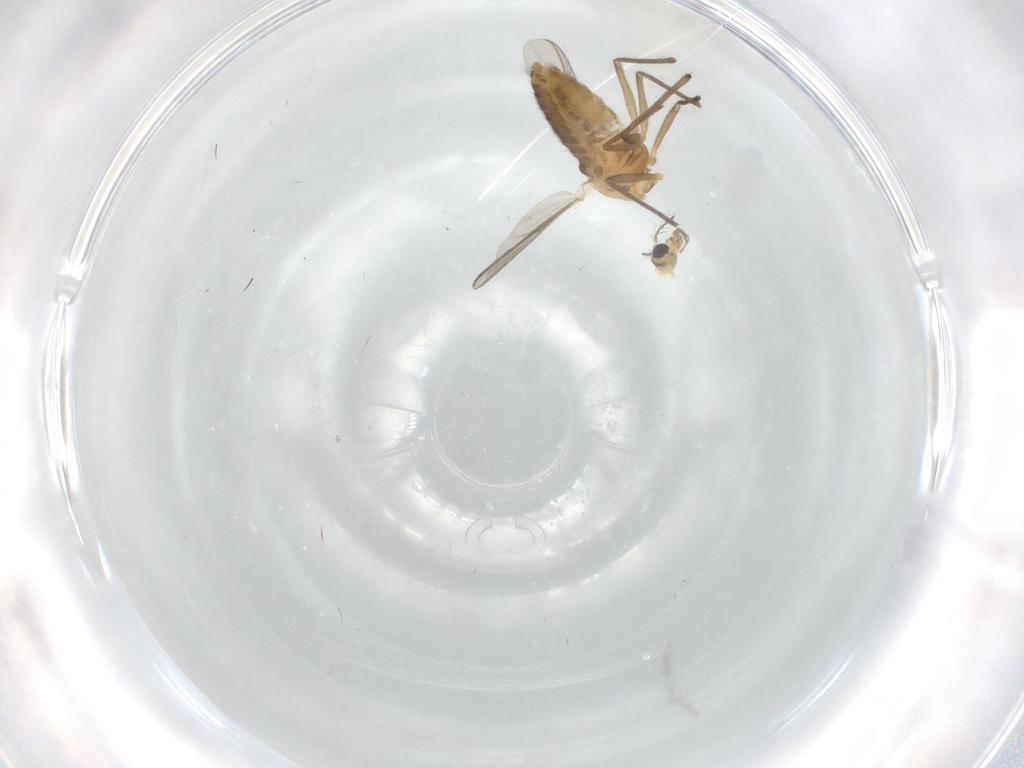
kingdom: Animalia
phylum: Arthropoda
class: Insecta
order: Diptera
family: Chironomidae
